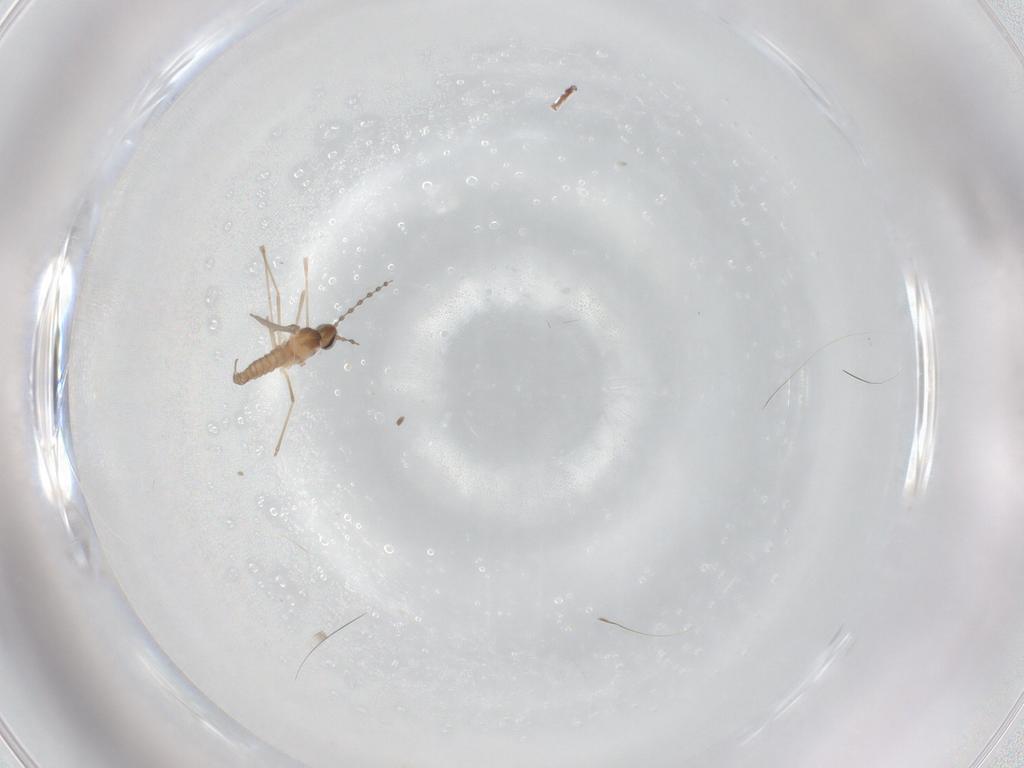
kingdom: Animalia
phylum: Arthropoda
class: Insecta
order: Diptera
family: Cecidomyiidae
